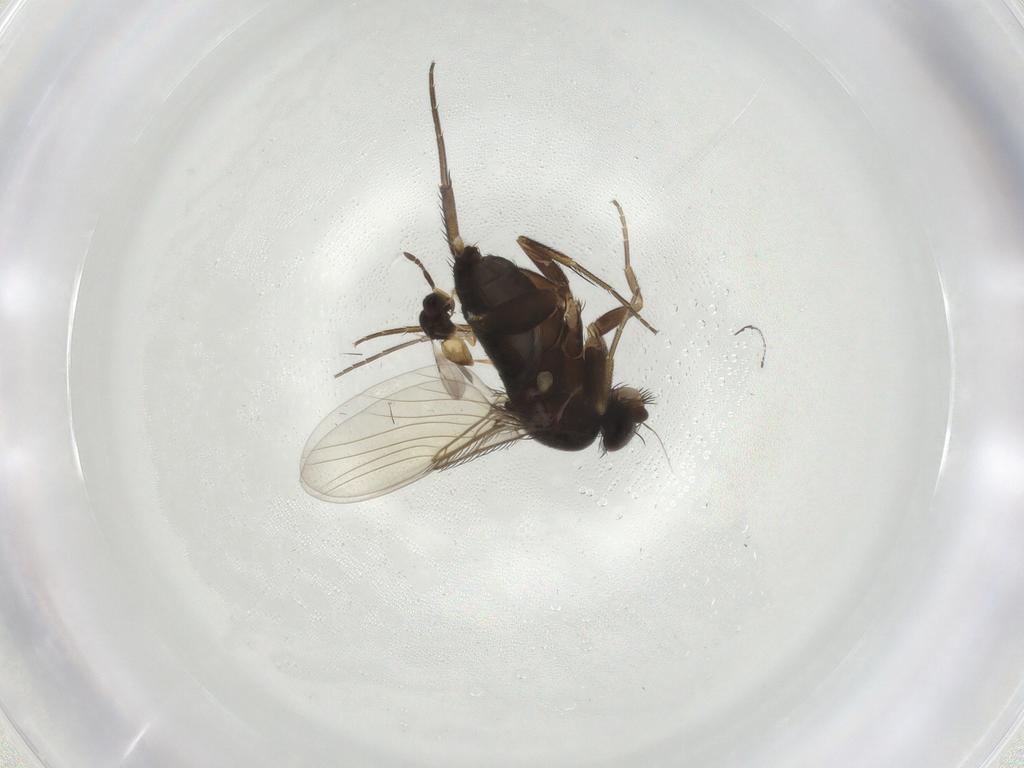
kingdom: Animalia
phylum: Arthropoda
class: Insecta
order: Diptera
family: Phoridae
